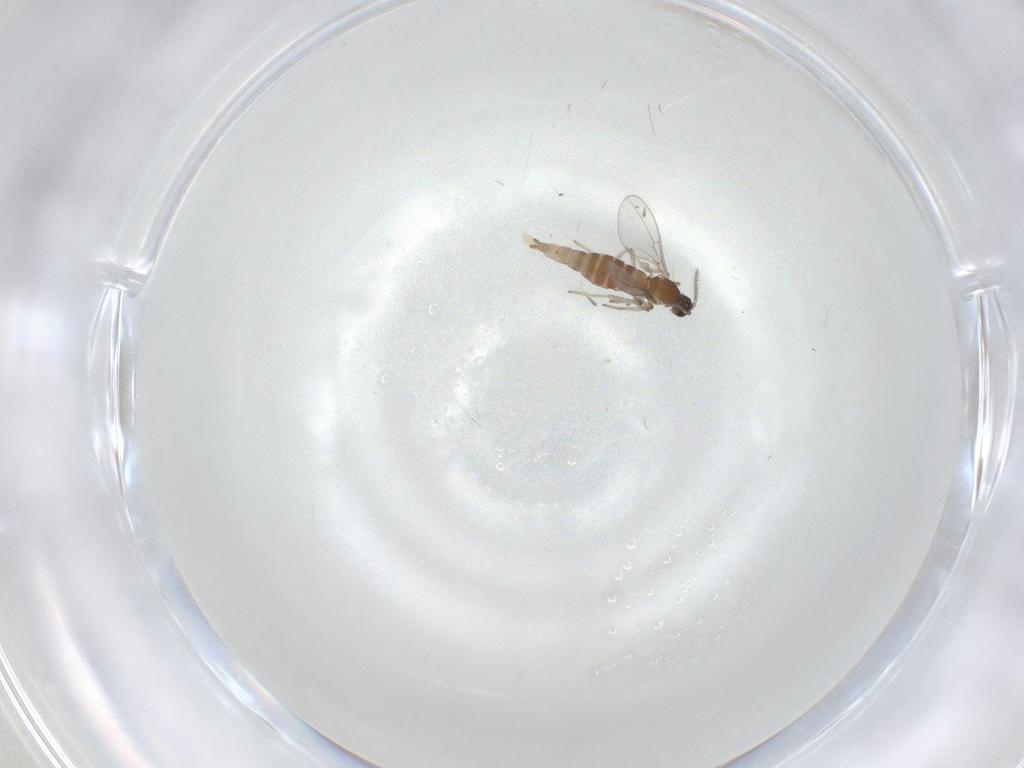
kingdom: Animalia
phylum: Arthropoda
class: Insecta
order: Diptera
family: Cecidomyiidae
